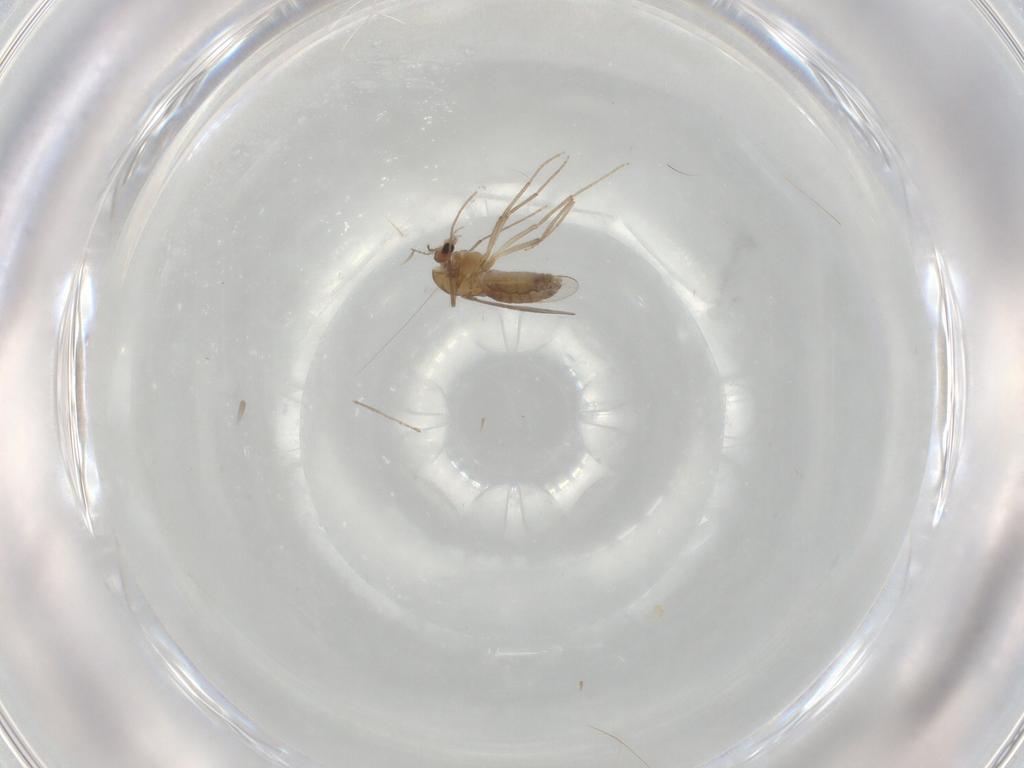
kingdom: Animalia
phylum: Arthropoda
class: Insecta
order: Diptera
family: Chironomidae
